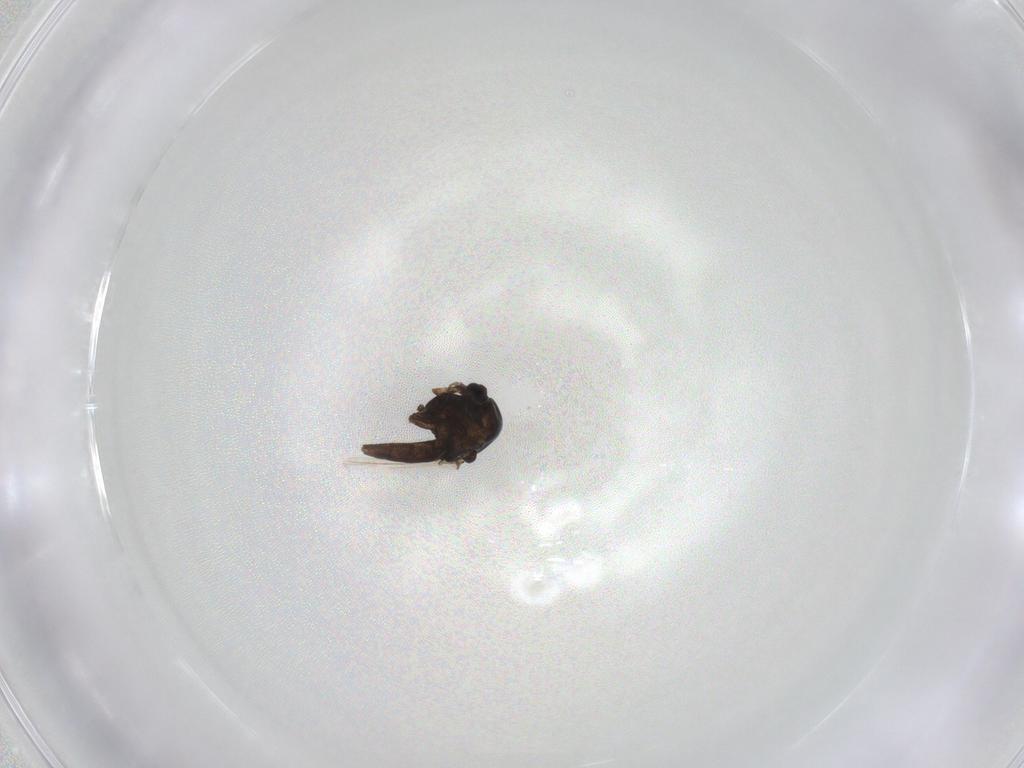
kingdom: Animalia
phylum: Arthropoda
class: Insecta
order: Diptera
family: Chironomidae
